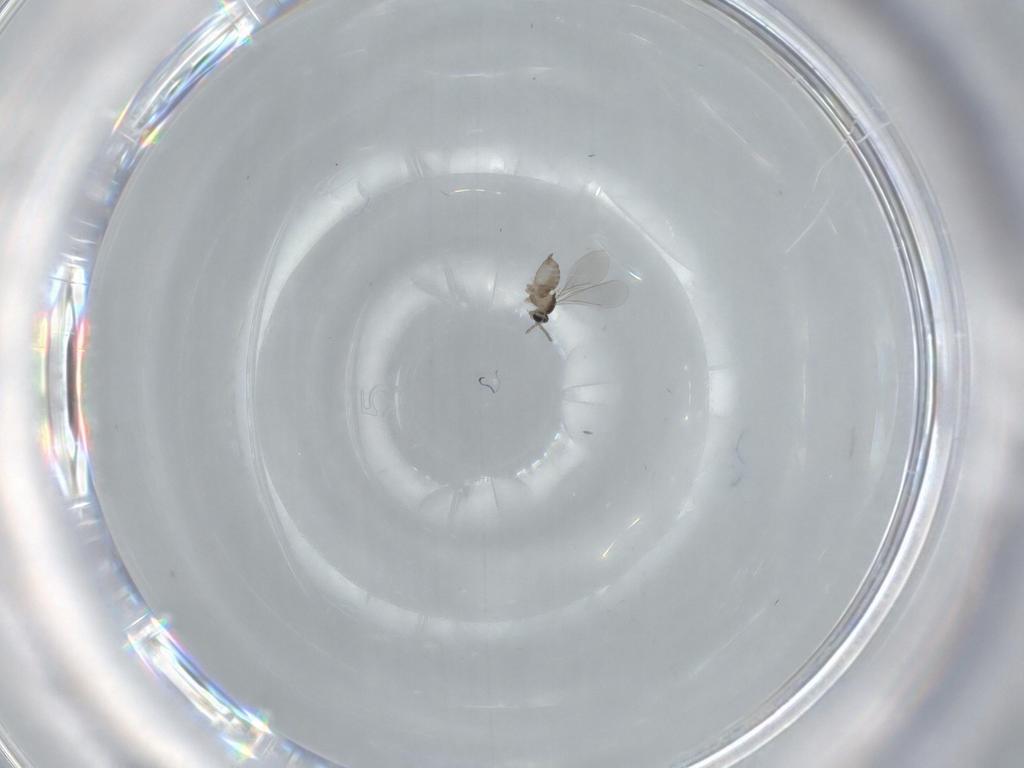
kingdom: Animalia
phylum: Arthropoda
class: Insecta
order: Diptera
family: Cecidomyiidae
